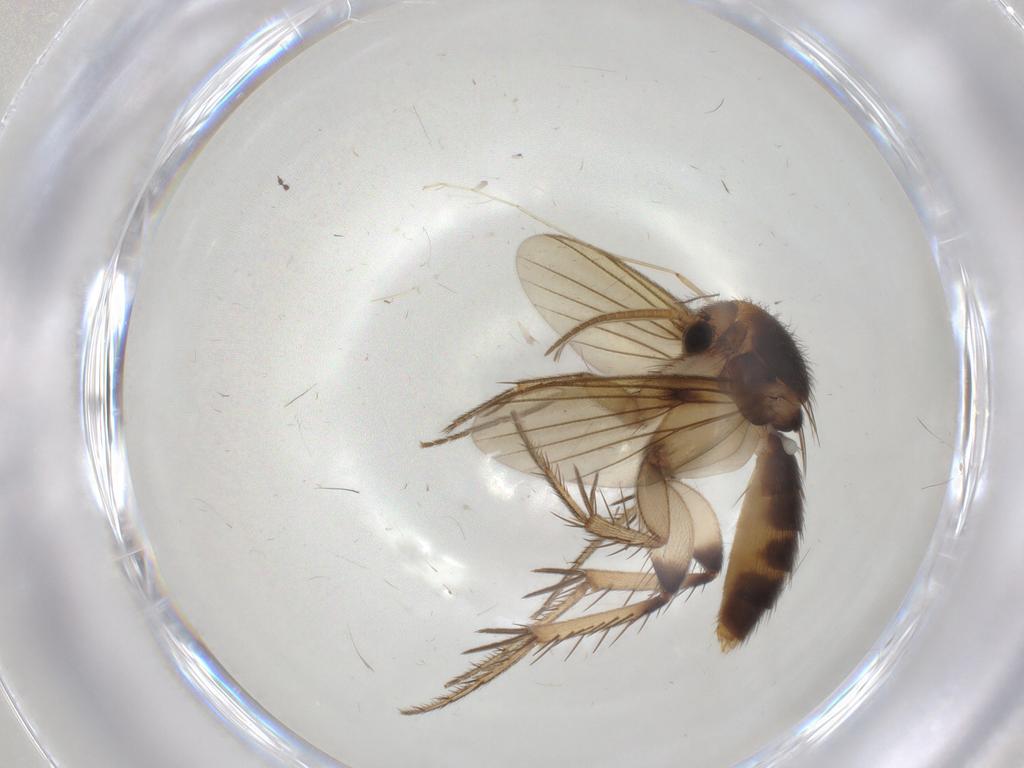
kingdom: Animalia
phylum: Arthropoda
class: Insecta
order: Diptera
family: Mycetophilidae
